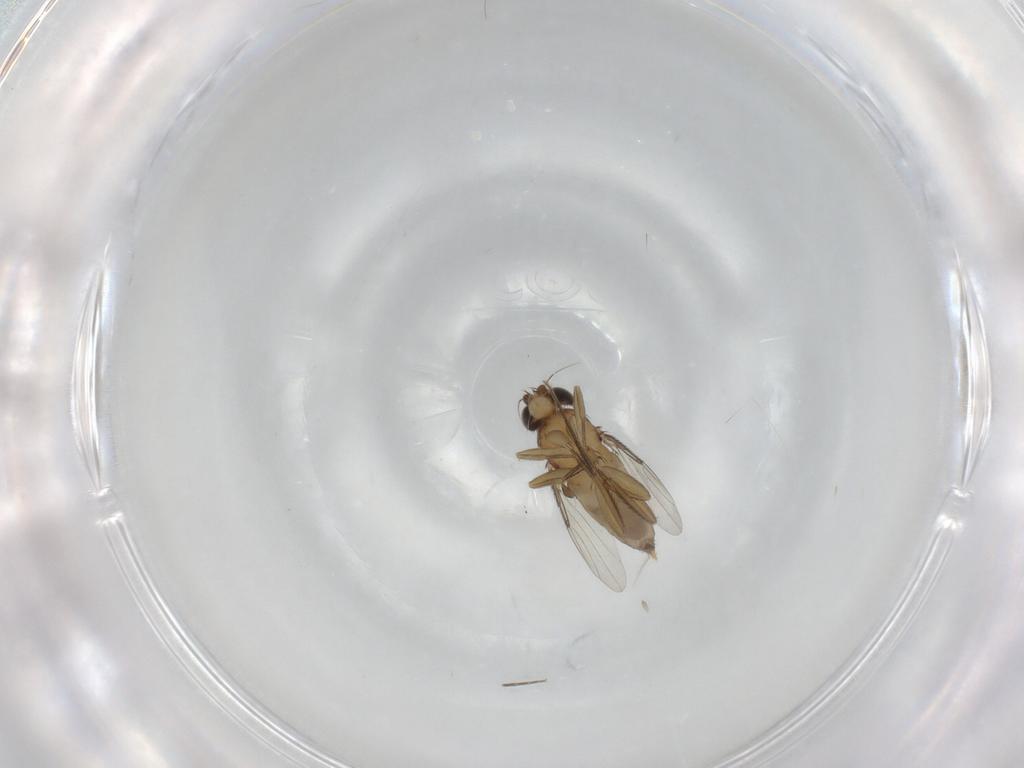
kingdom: Animalia
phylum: Arthropoda
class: Insecta
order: Diptera
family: Phoridae
